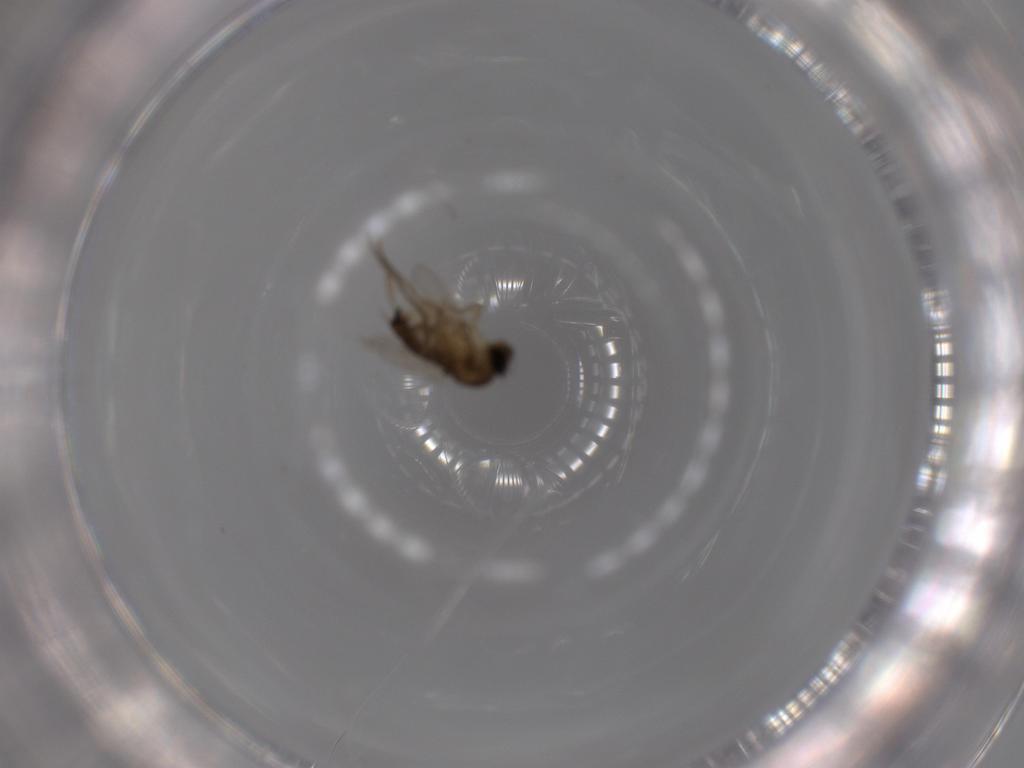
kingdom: Animalia
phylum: Arthropoda
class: Insecta
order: Diptera
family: Phoridae
